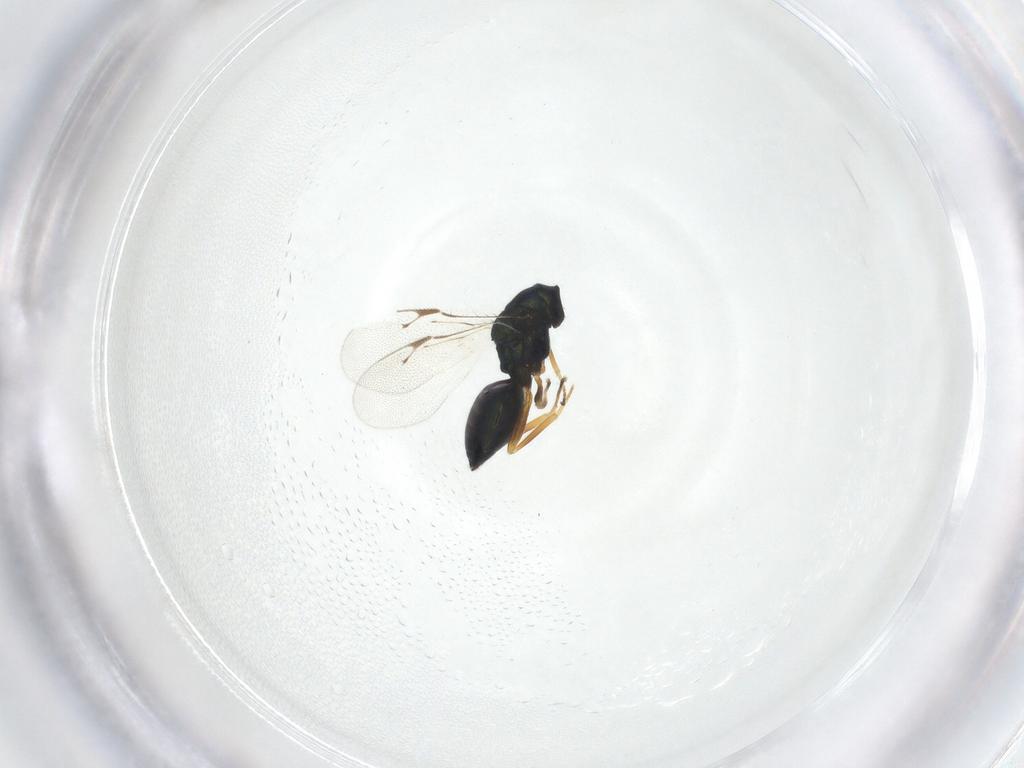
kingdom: Animalia
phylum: Arthropoda
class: Insecta
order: Hymenoptera
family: Pteromalidae
